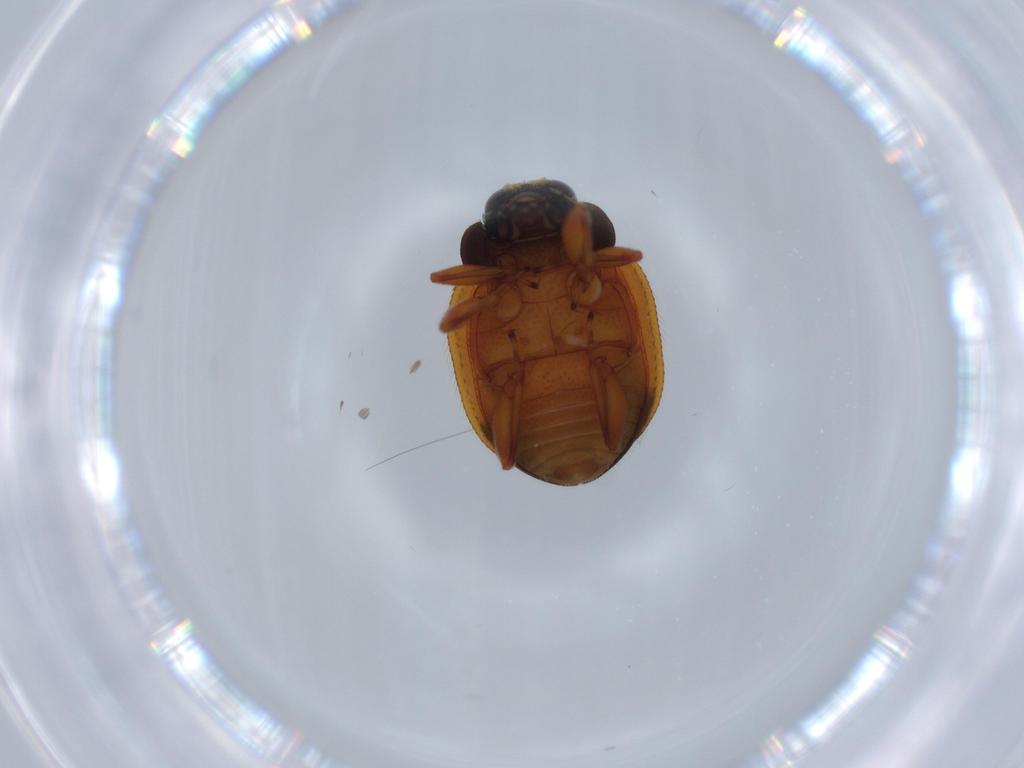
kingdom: Animalia
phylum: Arthropoda
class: Insecta
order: Coleoptera
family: Coccinellidae
